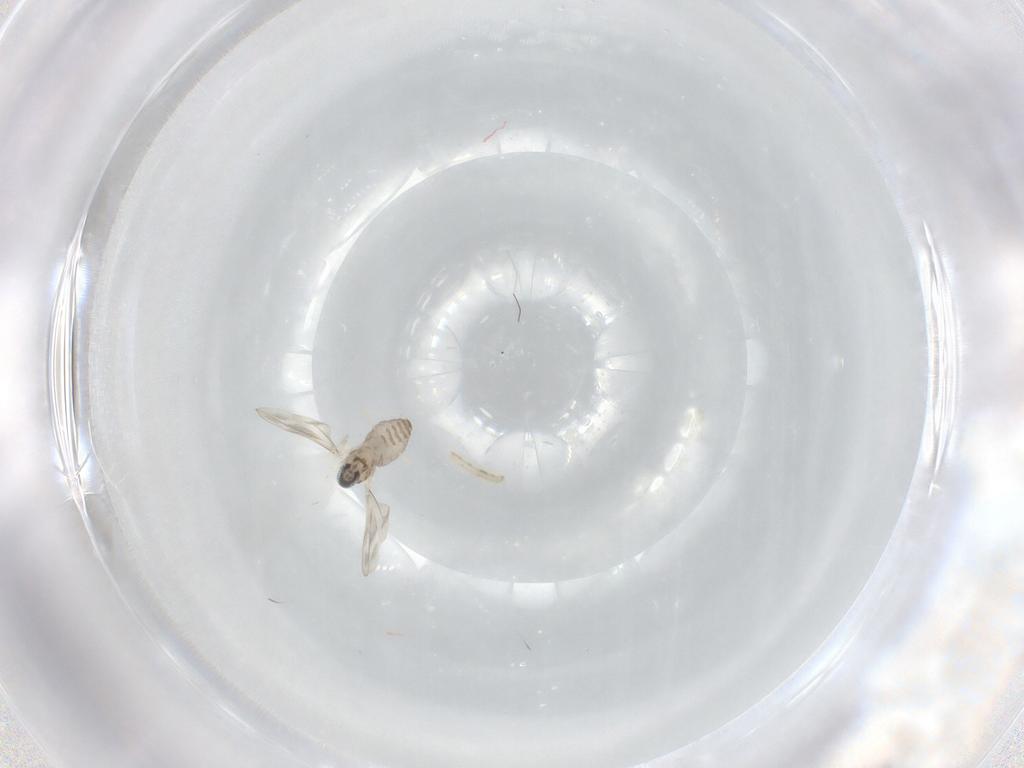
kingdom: Animalia
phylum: Arthropoda
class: Insecta
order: Diptera
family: Cecidomyiidae
